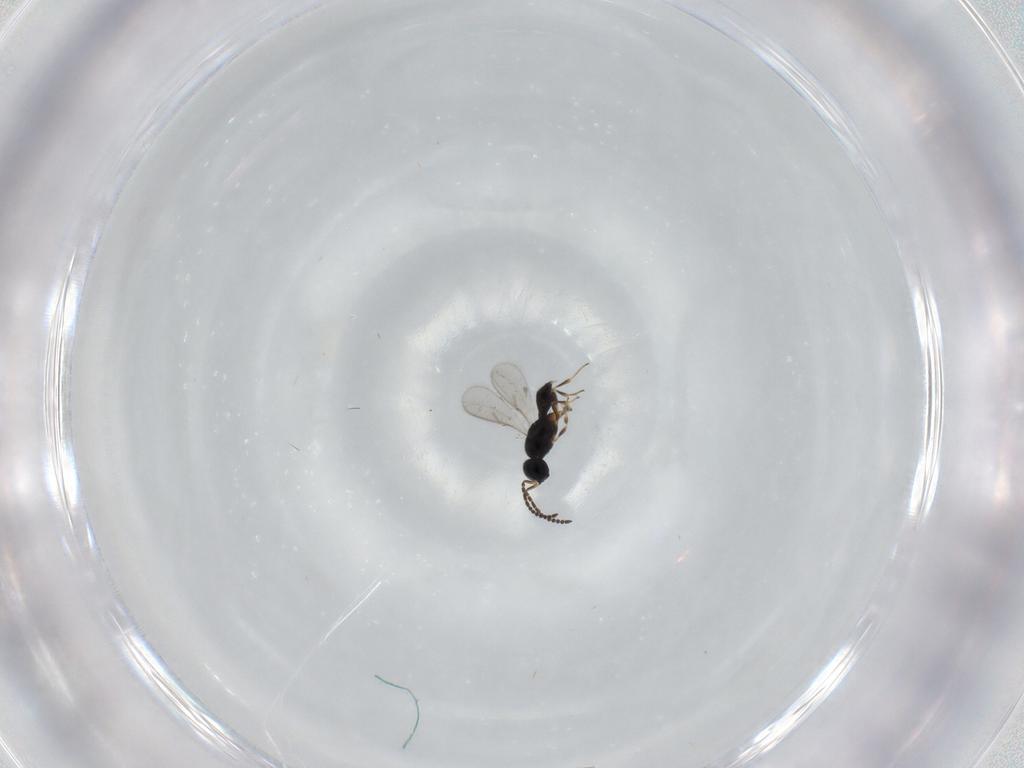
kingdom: Animalia
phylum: Arthropoda
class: Insecta
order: Hymenoptera
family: Scelionidae
